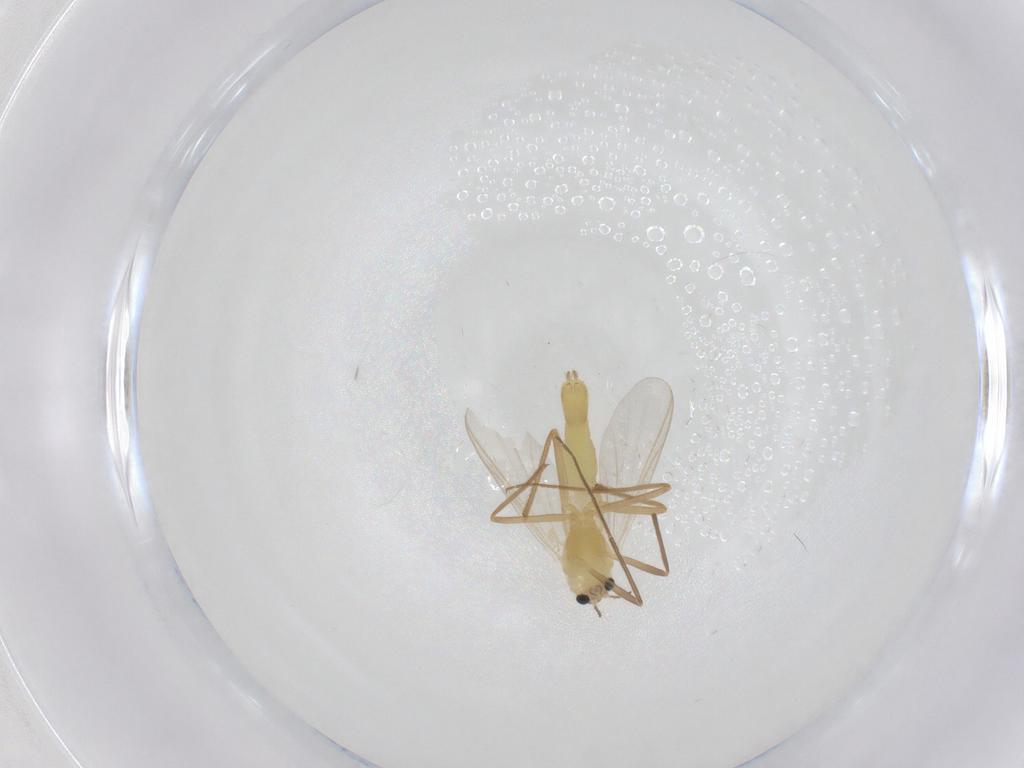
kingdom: Animalia
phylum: Arthropoda
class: Insecta
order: Diptera
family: Chironomidae
